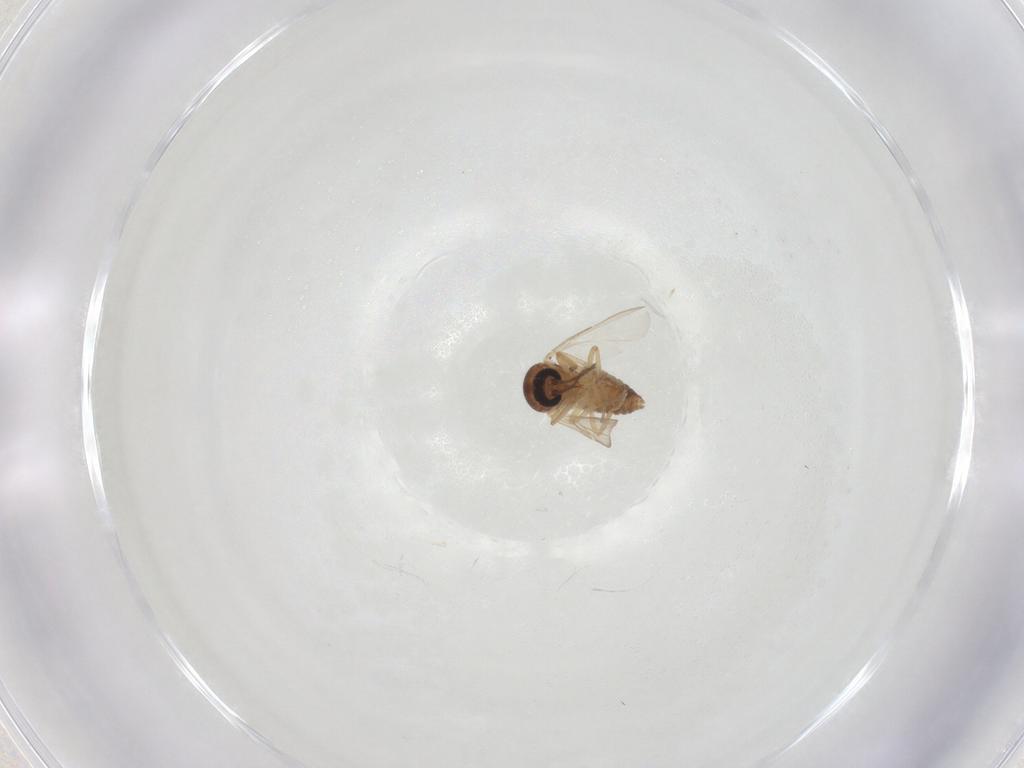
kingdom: Animalia
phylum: Arthropoda
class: Insecta
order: Diptera
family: Ceratopogonidae
